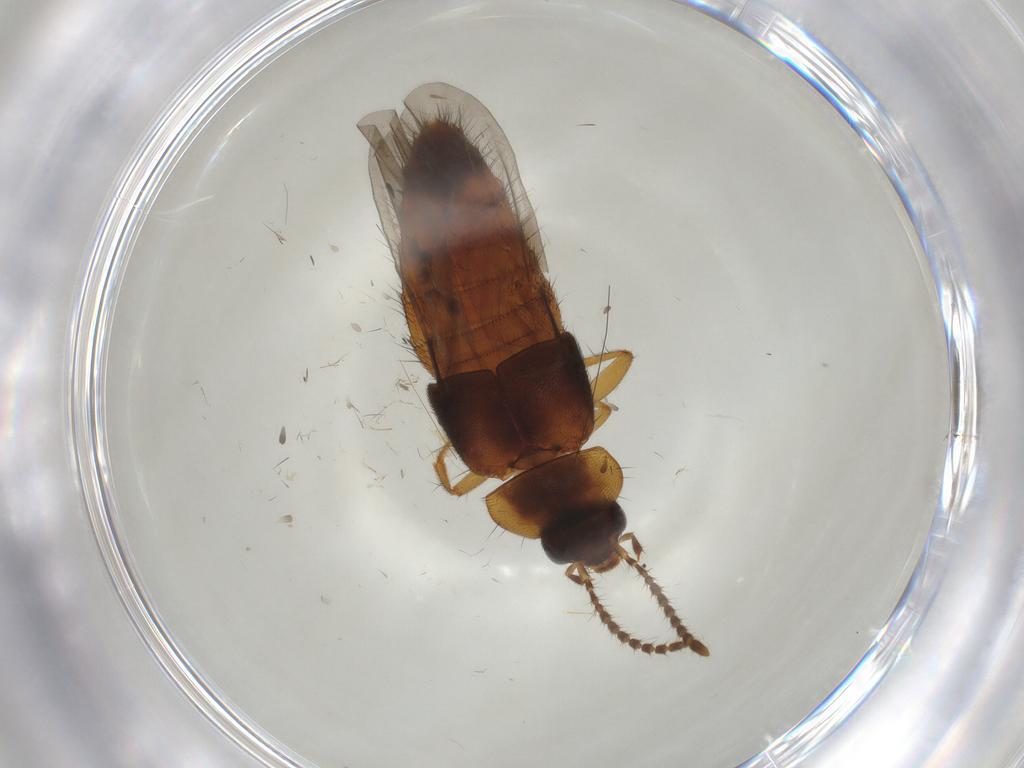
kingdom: Animalia
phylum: Arthropoda
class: Insecta
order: Coleoptera
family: Staphylinidae
